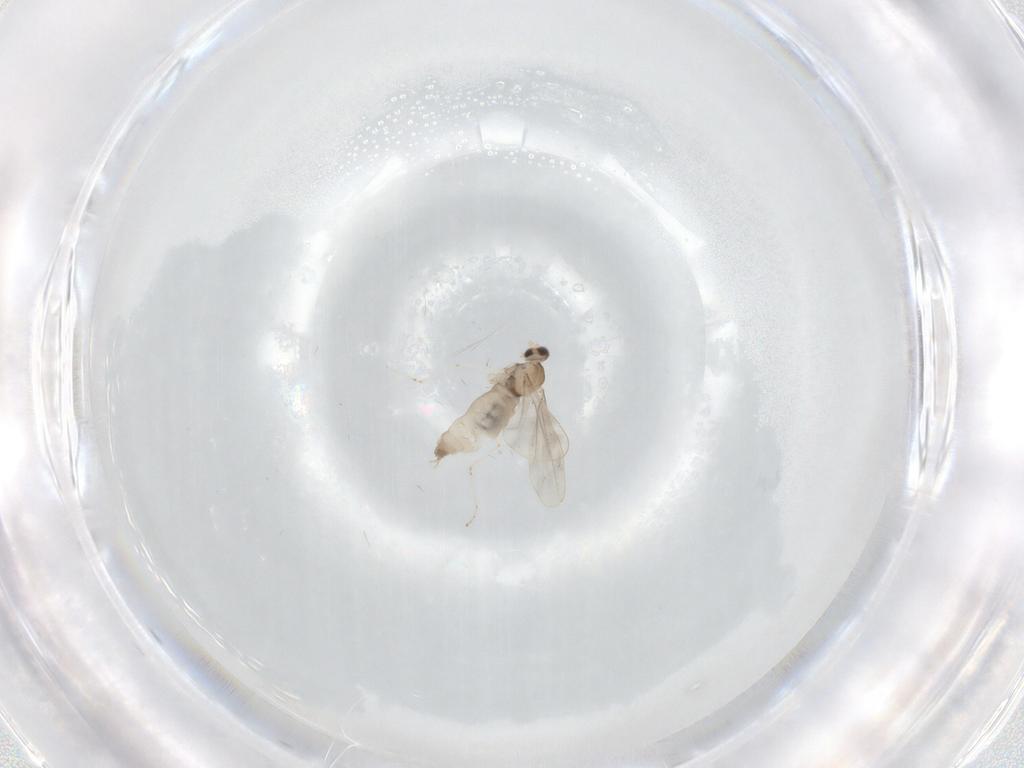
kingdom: Animalia
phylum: Arthropoda
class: Insecta
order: Diptera
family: Cecidomyiidae
